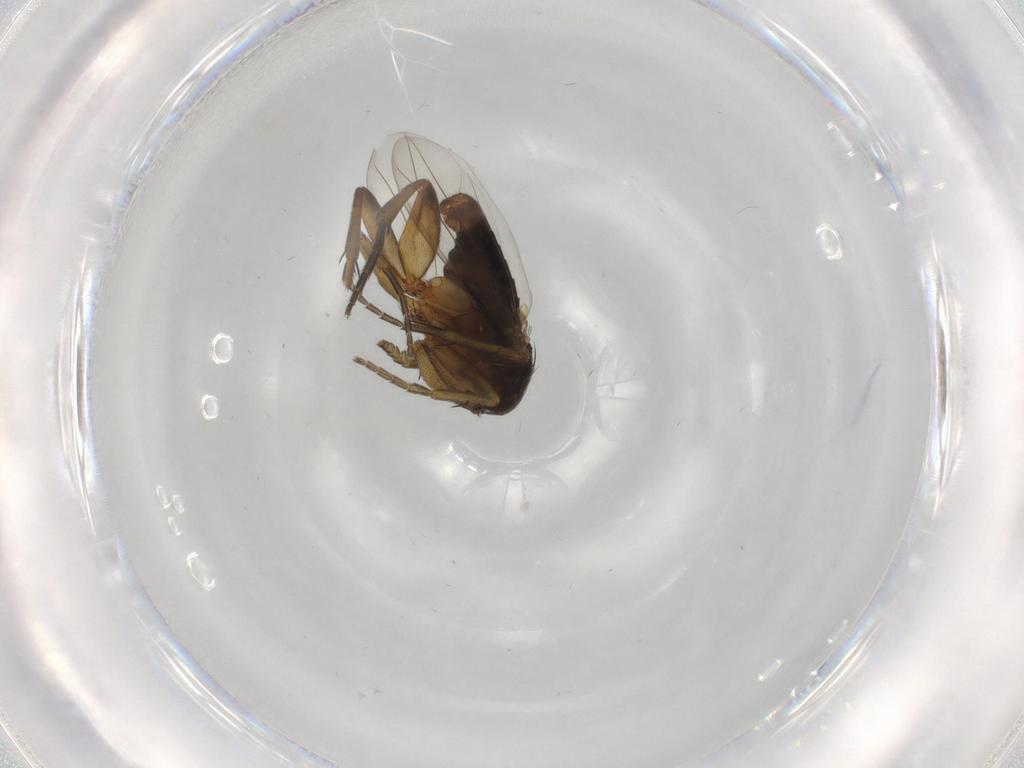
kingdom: Animalia
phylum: Arthropoda
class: Insecta
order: Diptera
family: Phoridae
